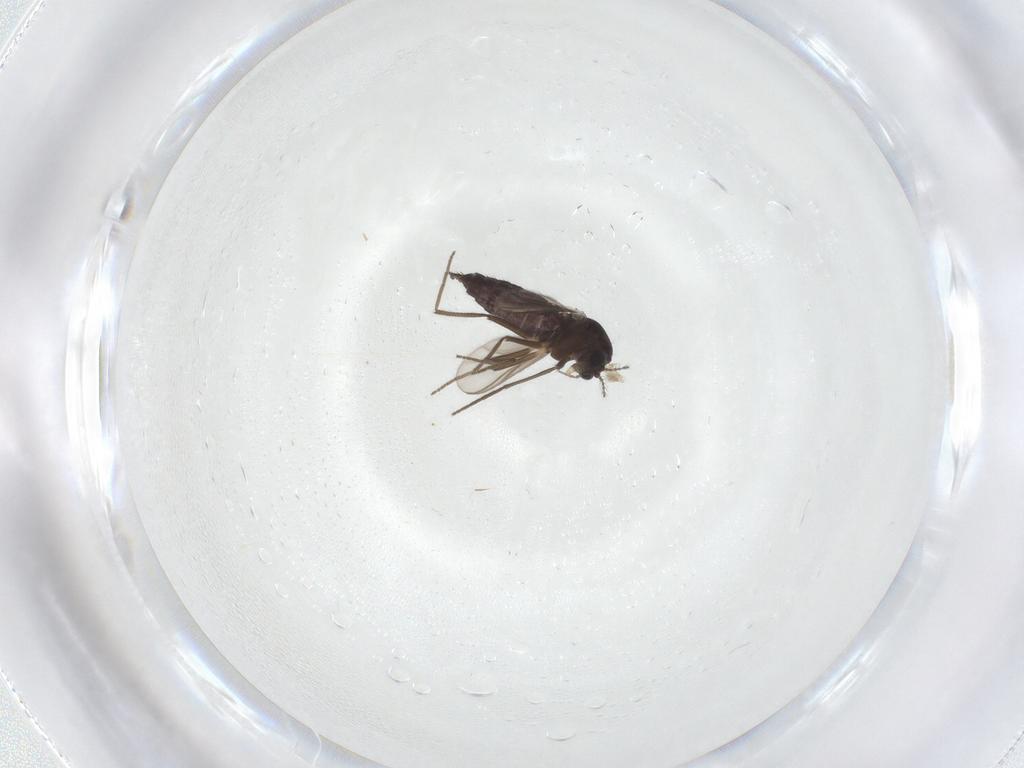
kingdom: Animalia
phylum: Arthropoda
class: Insecta
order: Diptera
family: Chironomidae
